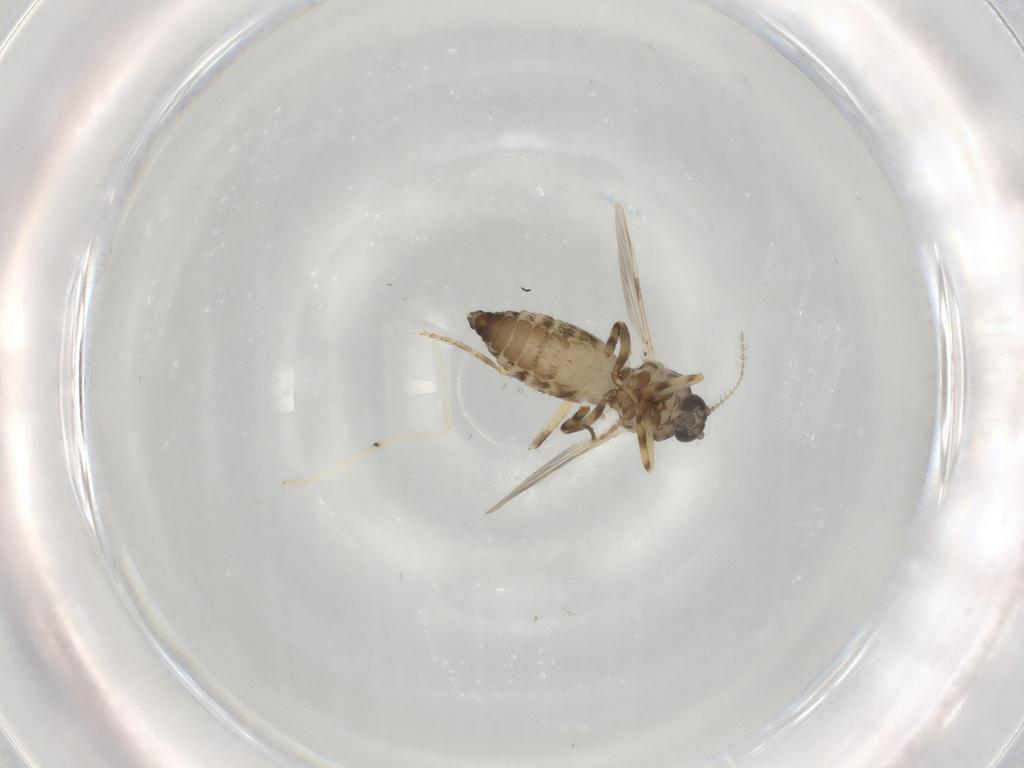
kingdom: Animalia
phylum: Arthropoda
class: Insecta
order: Diptera
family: Ceratopogonidae
